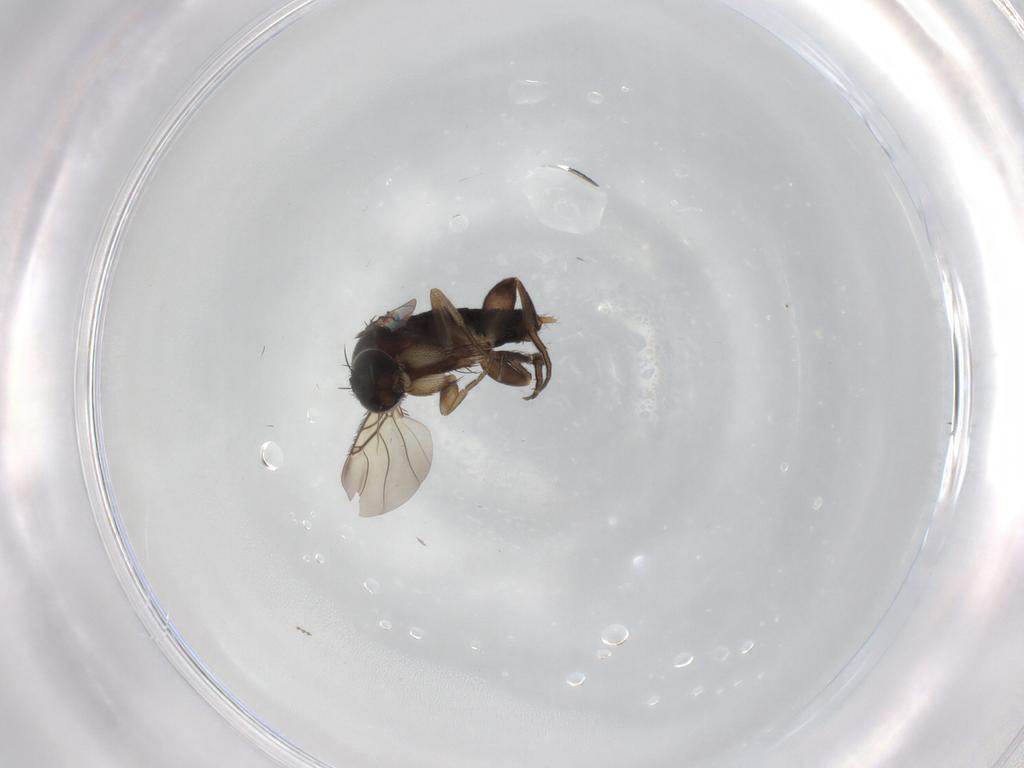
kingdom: Animalia
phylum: Arthropoda
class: Insecta
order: Diptera
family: Phoridae
